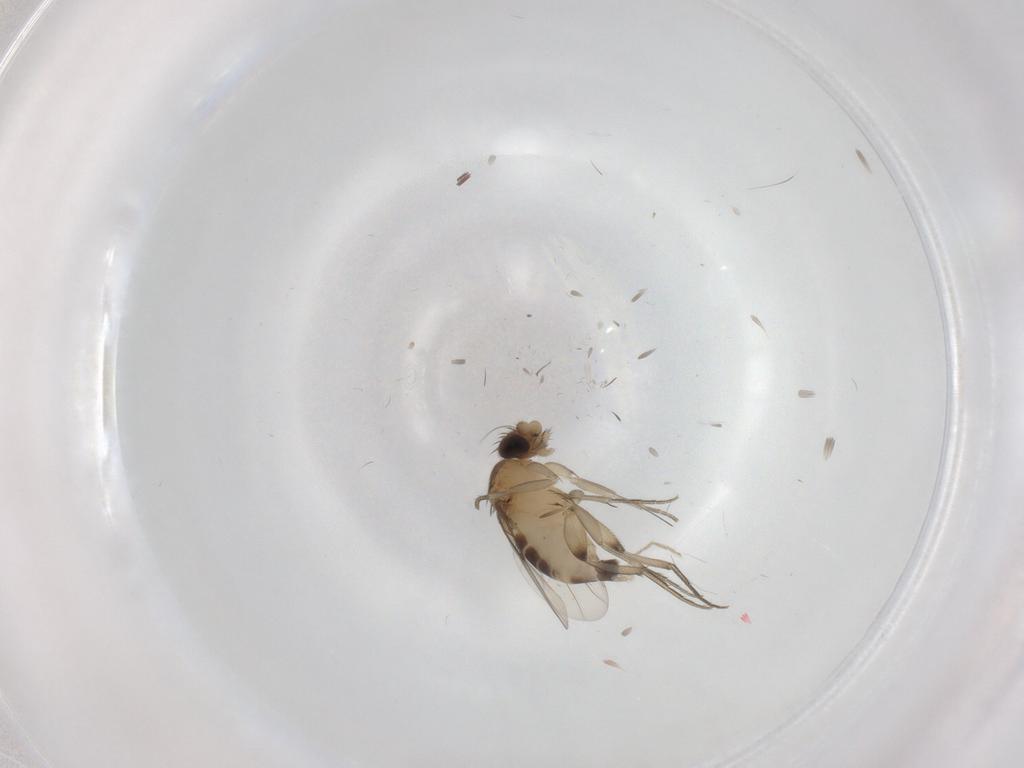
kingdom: Animalia
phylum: Arthropoda
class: Insecta
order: Diptera
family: Phoridae
